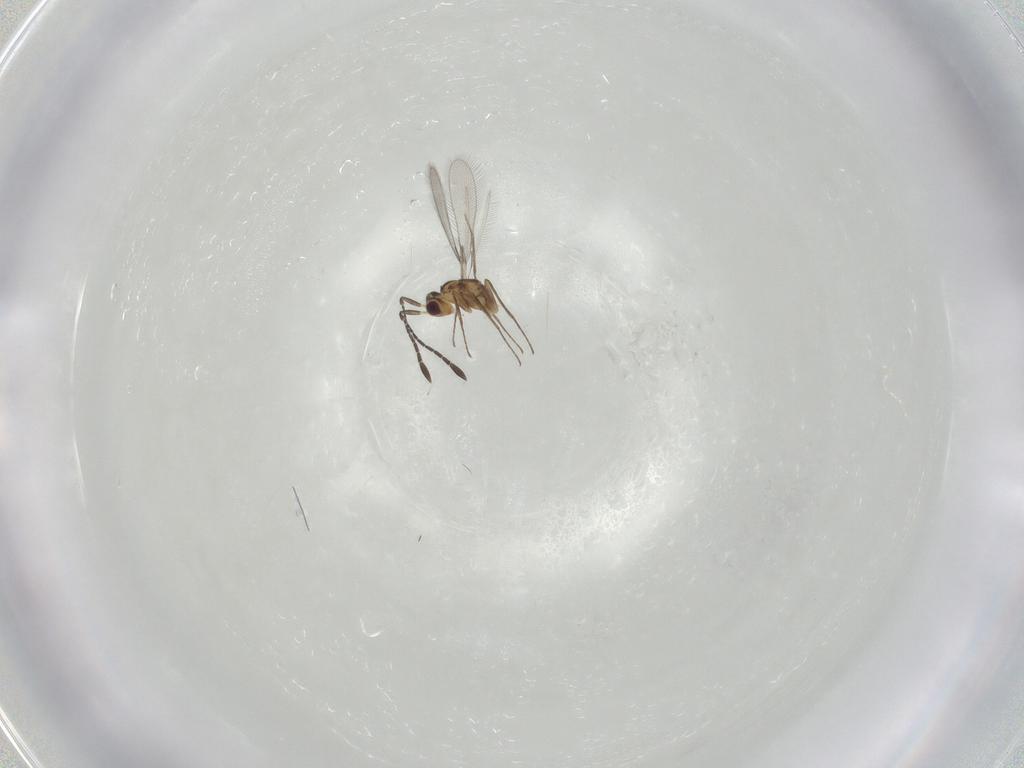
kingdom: Animalia
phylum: Arthropoda
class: Insecta
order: Hymenoptera
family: Mymaridae
